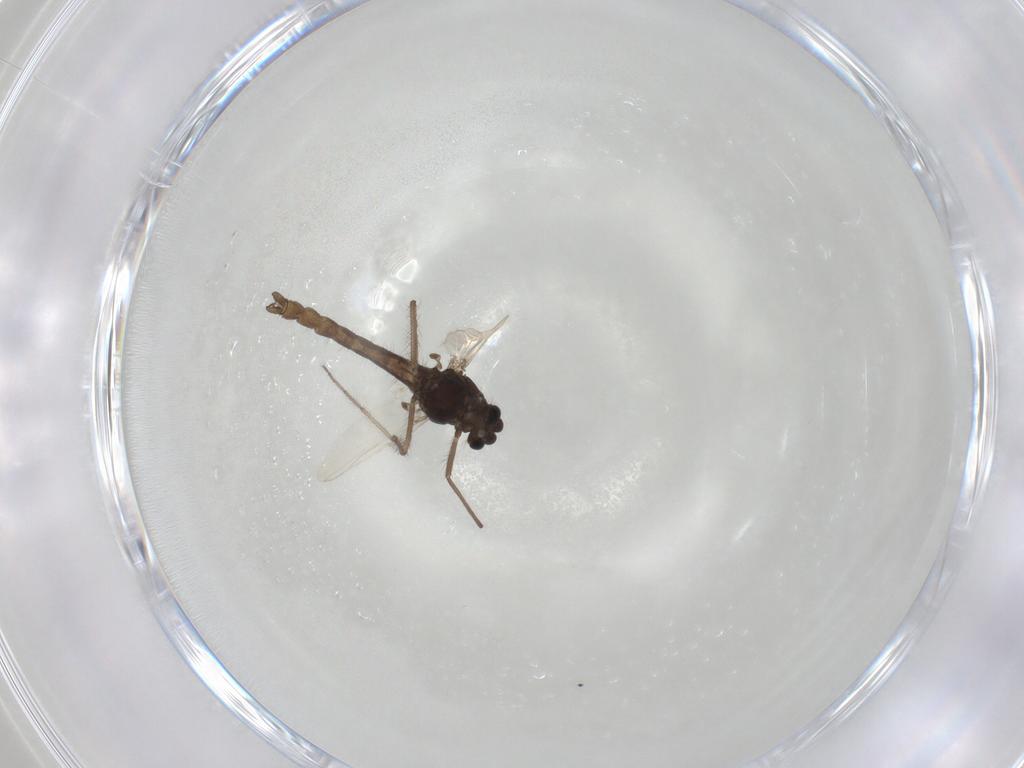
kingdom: Animalia
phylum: Arthropoda
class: Insecta
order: Diptera
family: Chironomidae
